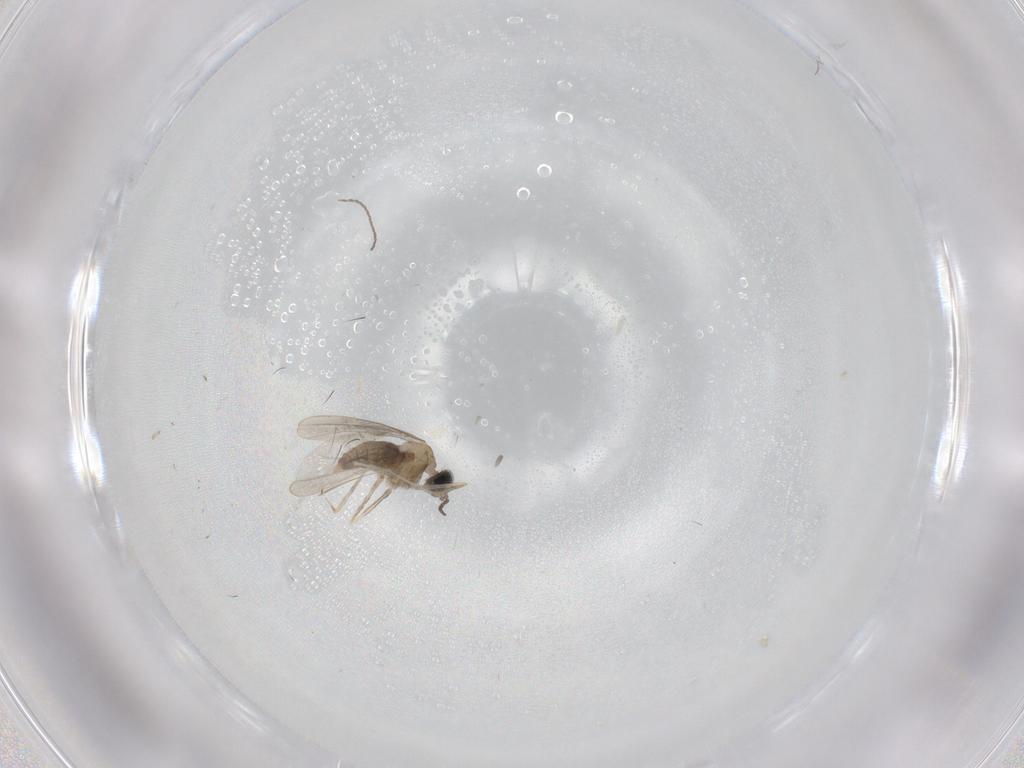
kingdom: Animalia
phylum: Arthropoda
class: Insecta
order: Diptera
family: Cecidomyiidae
